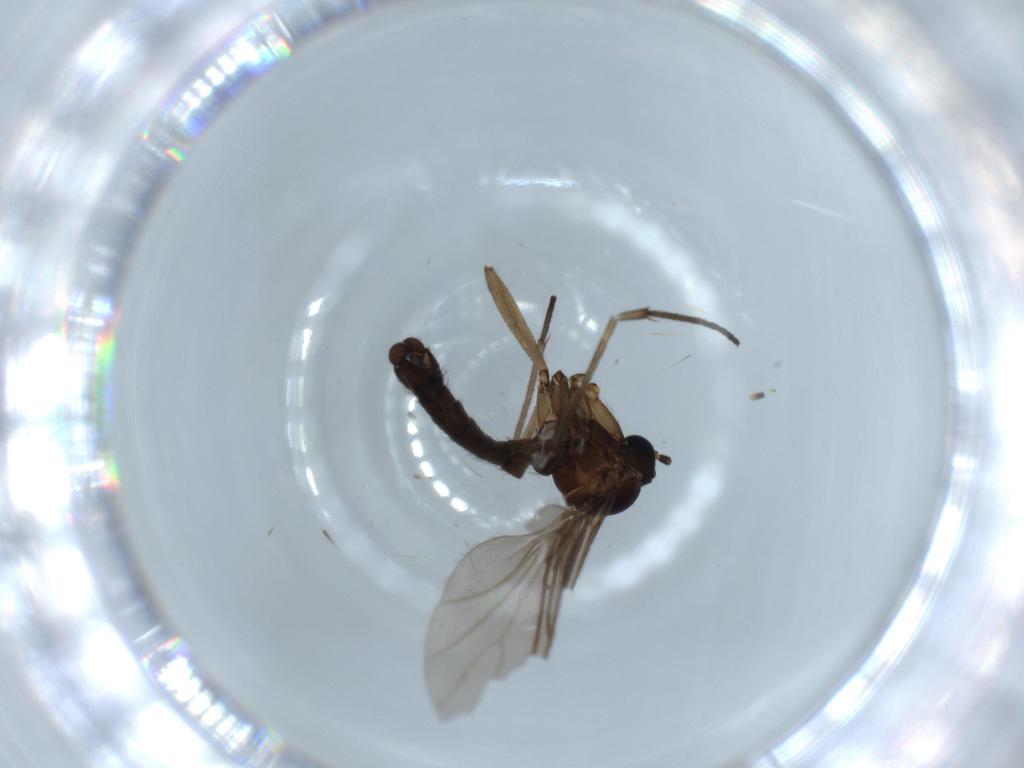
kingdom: Animalia
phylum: Arthropoda
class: Insecta
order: Diptera
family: Sciaridae
